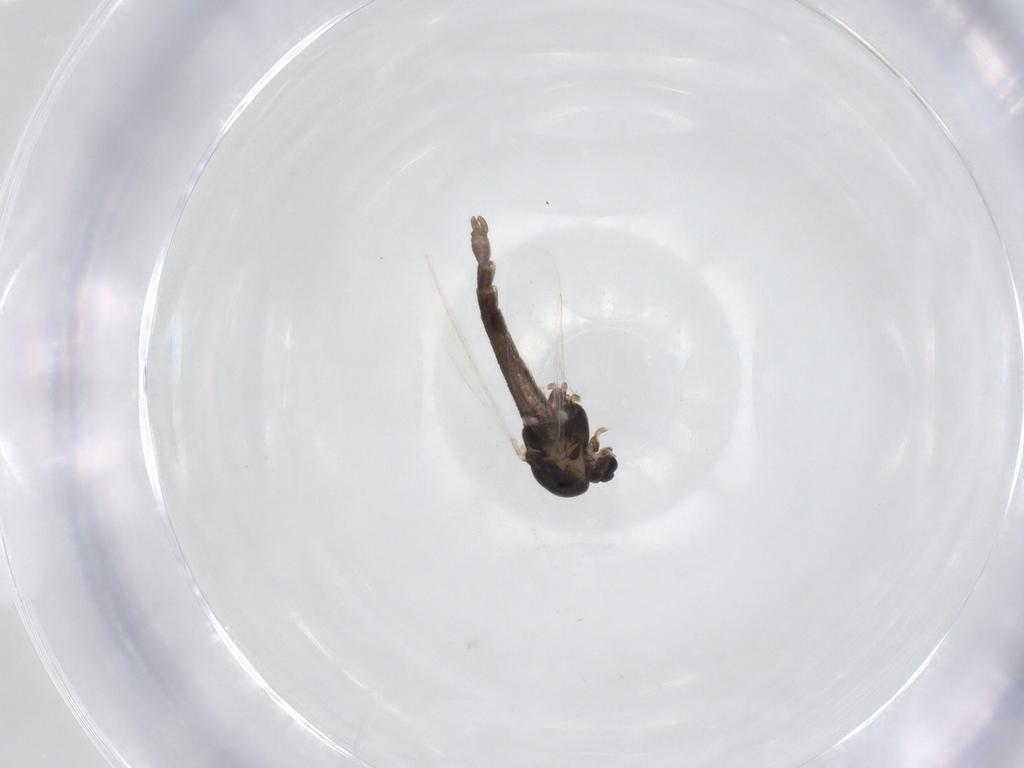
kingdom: Animalia
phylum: Arthropoda
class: Insecta
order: Diptera
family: Chironomidae
